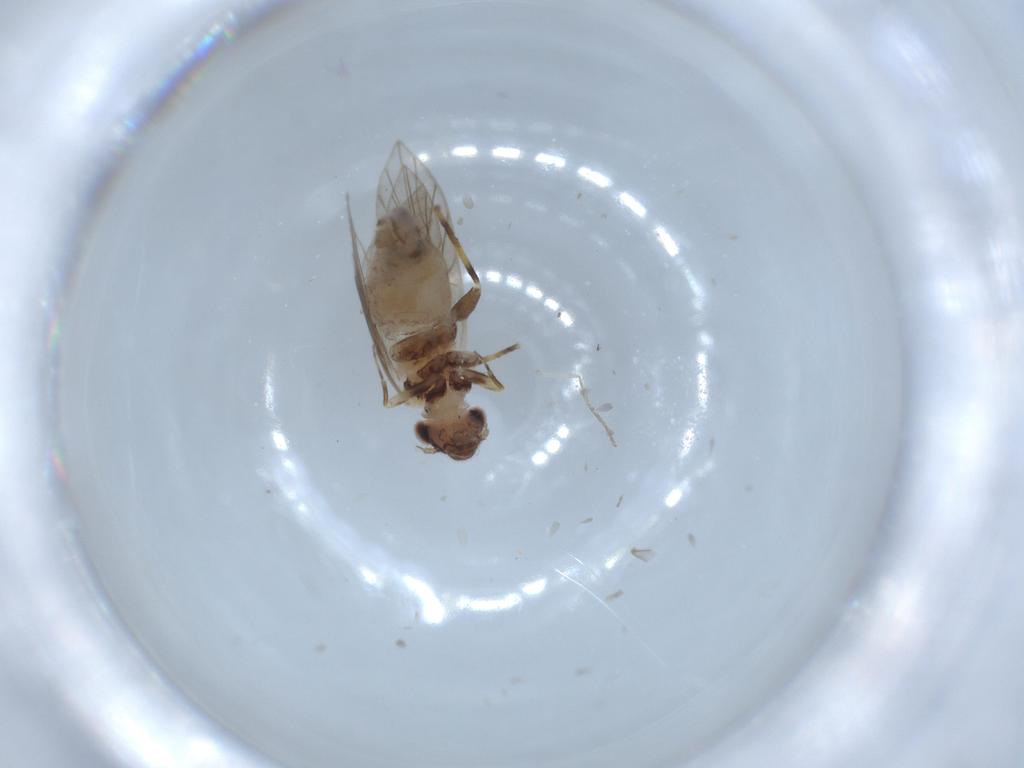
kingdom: Animalia
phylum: Arthropoda
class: Insecta
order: Psocodea
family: Lepidopsocidae
